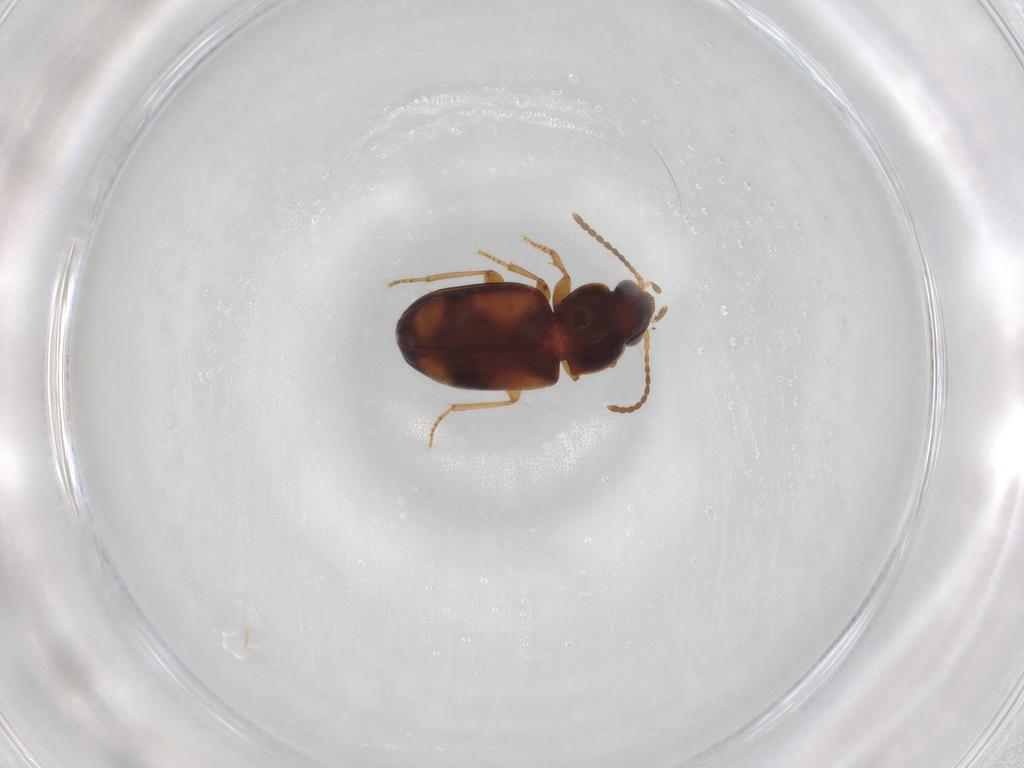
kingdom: Animalia
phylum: Arthropoda
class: Insecta
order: Coleoptera
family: Carabidae
